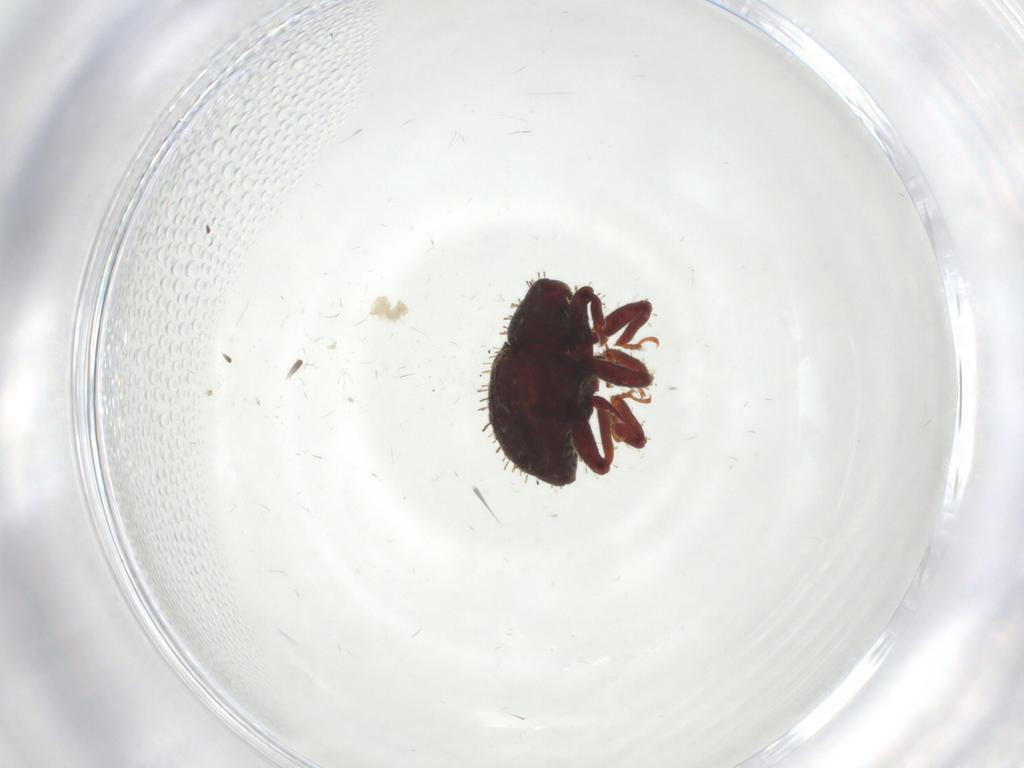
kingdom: Animalia
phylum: Arthropoda
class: Insecta
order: Coleoptera
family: Curculionidae
